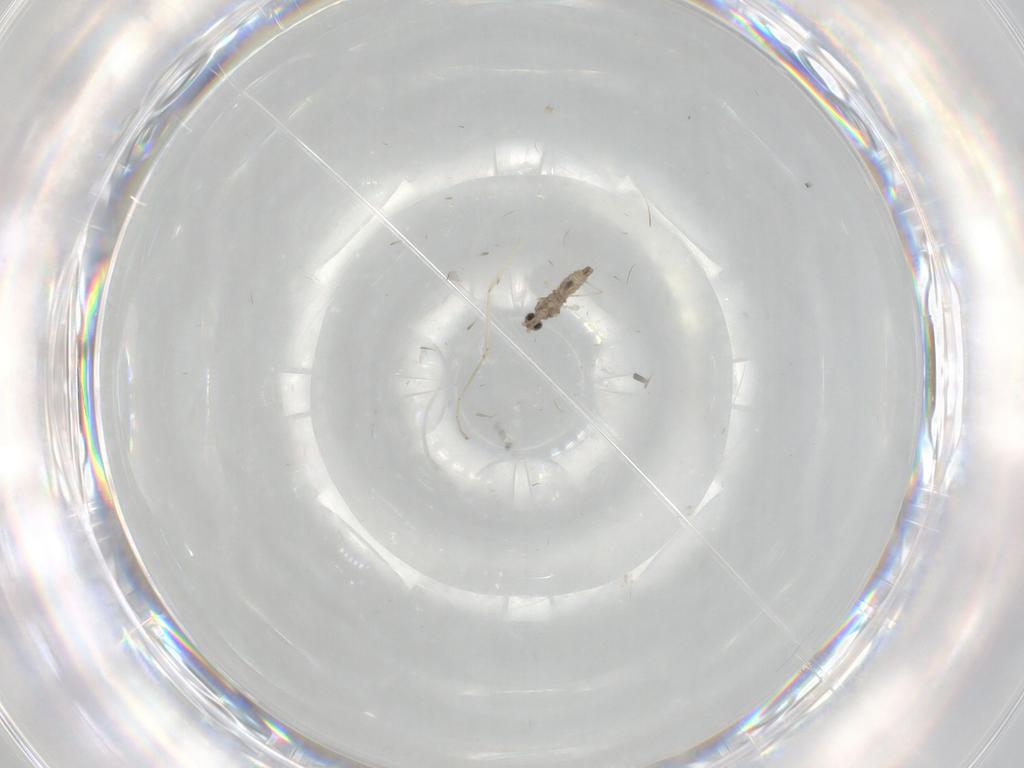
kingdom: Animalia
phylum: Arthropoda
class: Insecta
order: Diptera
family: Cecidomyiidae
